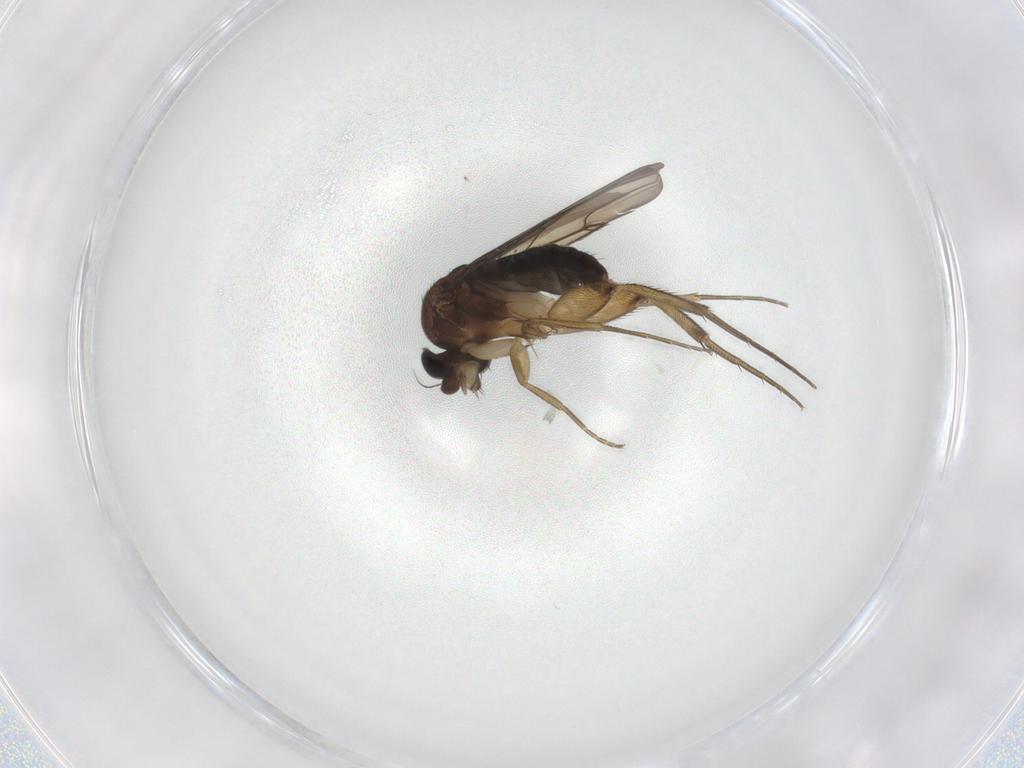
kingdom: Animalia
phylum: Arthropoda
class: Insecta
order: Diptera
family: Phoridae
